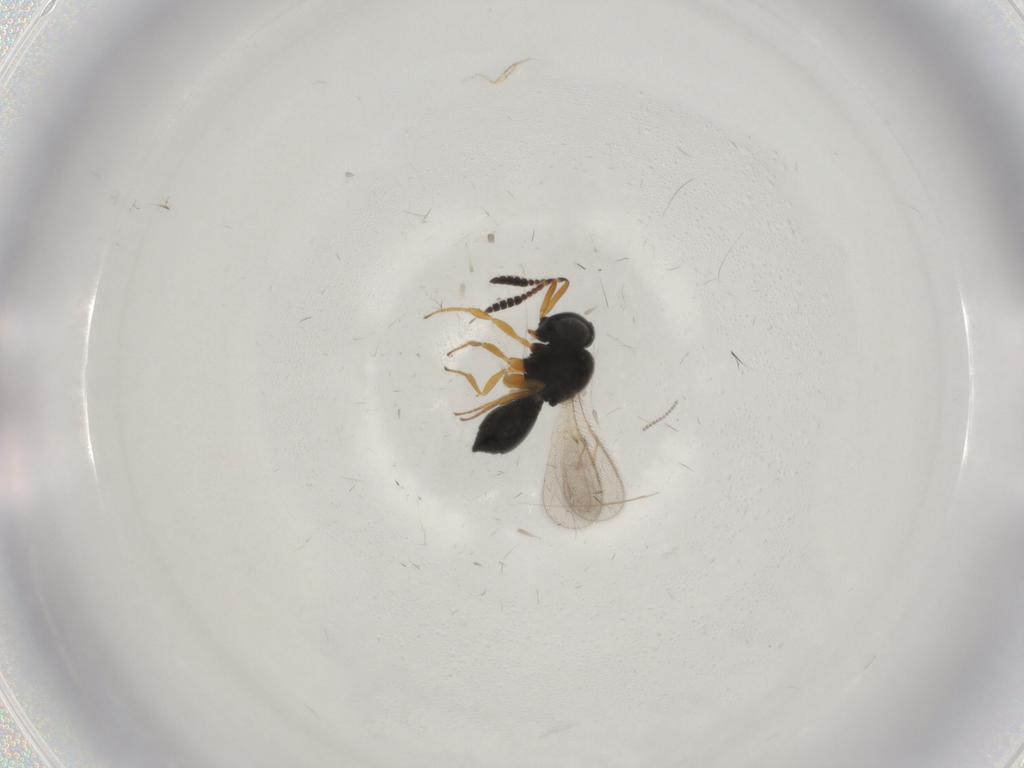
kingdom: Animalia
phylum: Arthropoda
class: Insecta
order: Hymenoptera
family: Scelionidae
